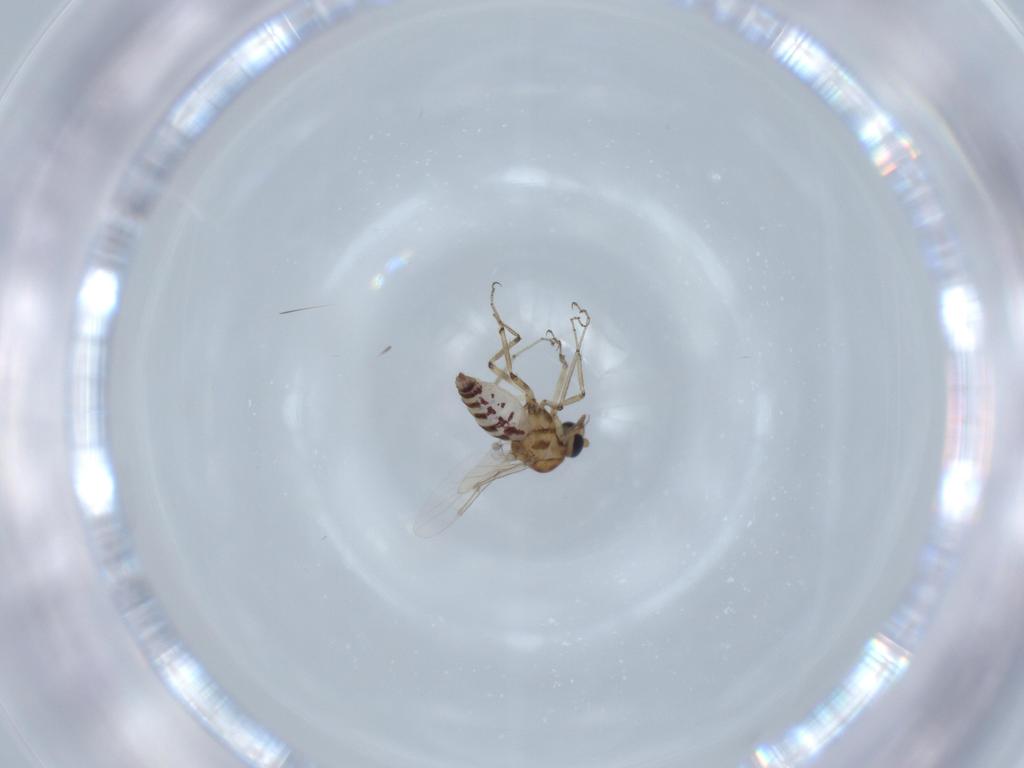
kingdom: Animalia
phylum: Arthropoda
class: Insecta
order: Diptera
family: Ceratopogonidae
